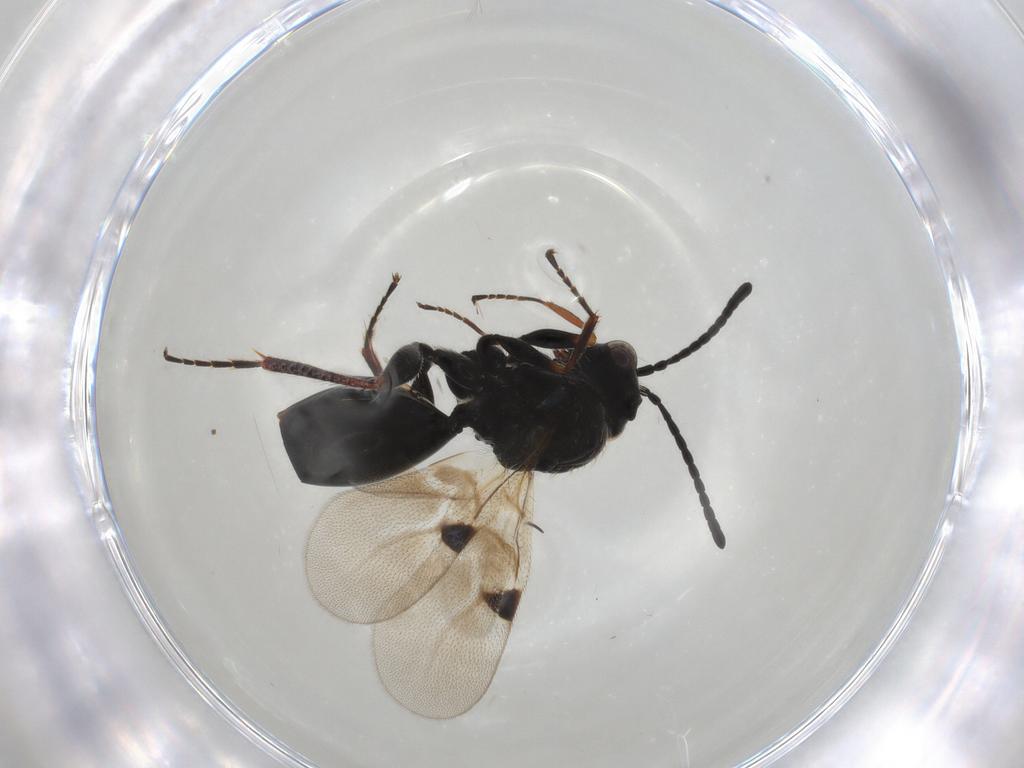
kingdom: Animalia
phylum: Arthropoda
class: Insecta
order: Hymenoptera
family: Figitidae
